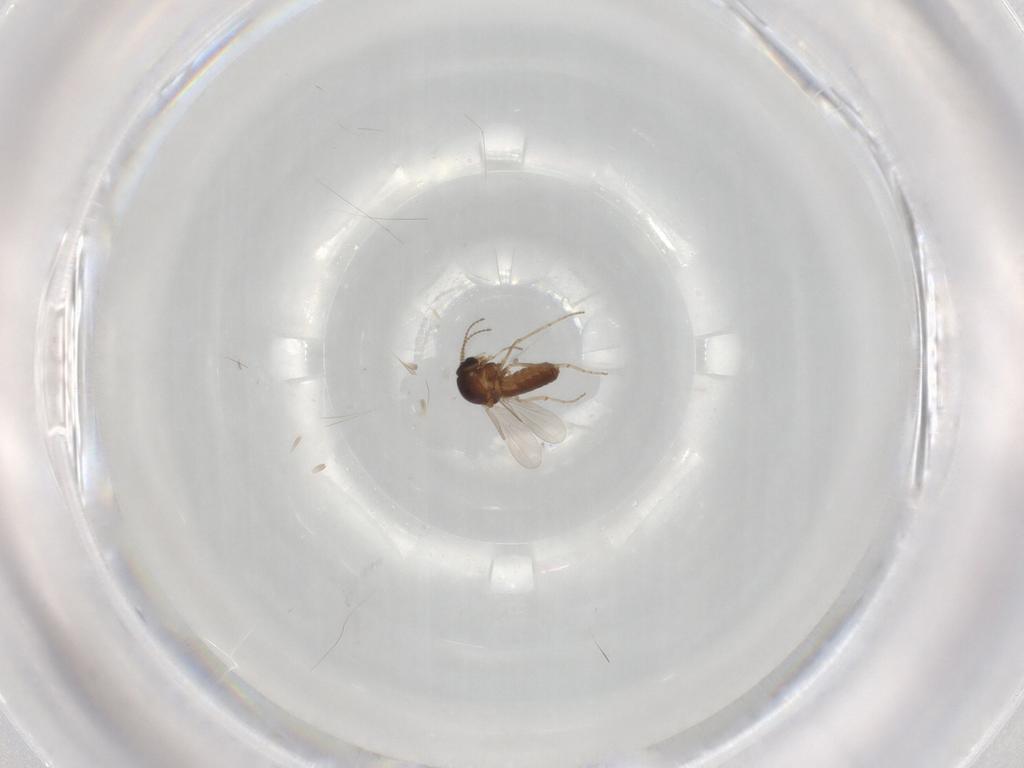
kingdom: Animalia
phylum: Arthropoda
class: Insecta
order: Diptera
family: Ceratopogonidae
